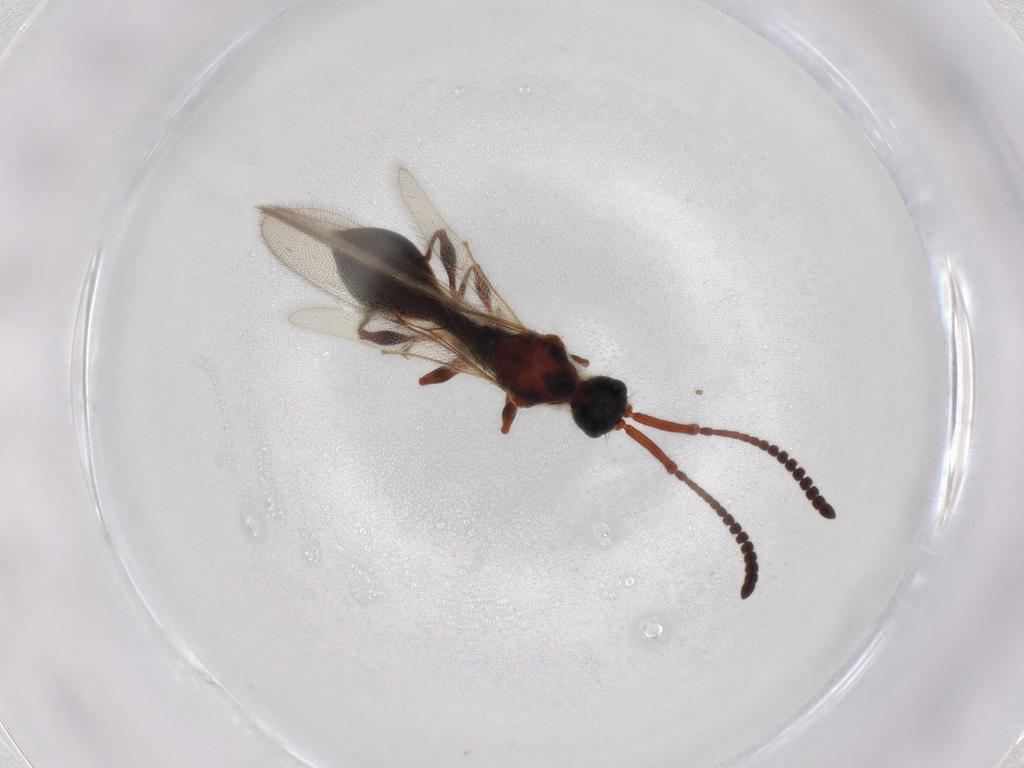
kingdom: Animalia
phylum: Arthropoda
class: Insecta
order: Hymenoptera
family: Diapriidae
